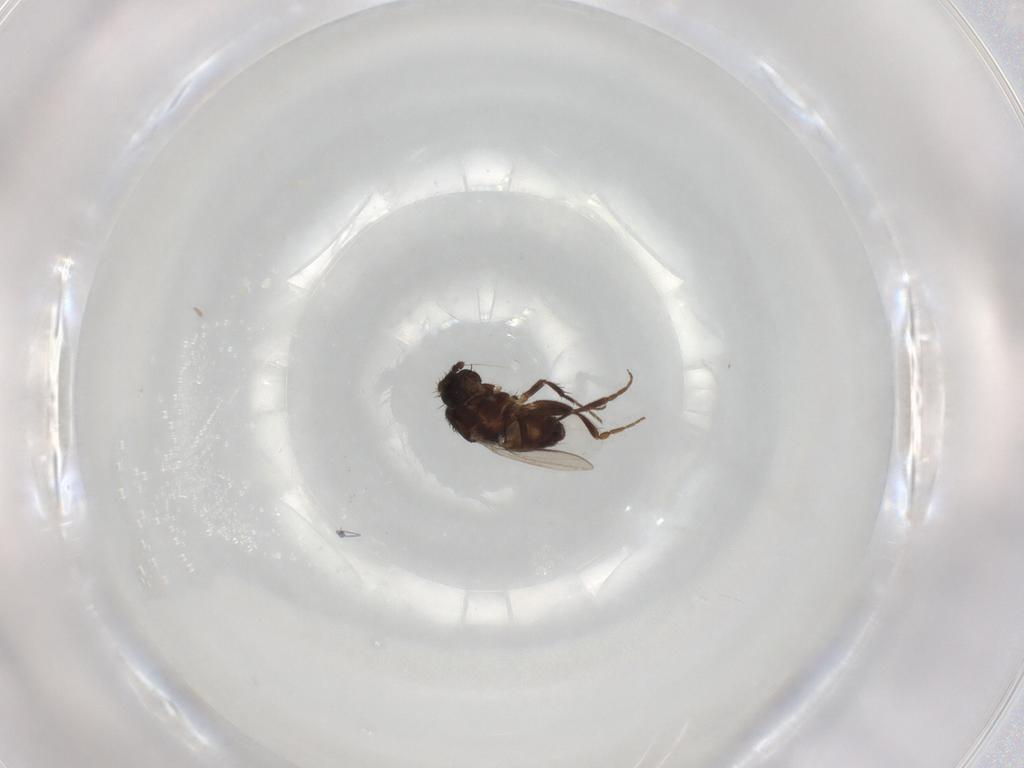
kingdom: Animalia
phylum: Arthropoda
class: Insecta
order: Diptera
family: Sphaeroceridae
